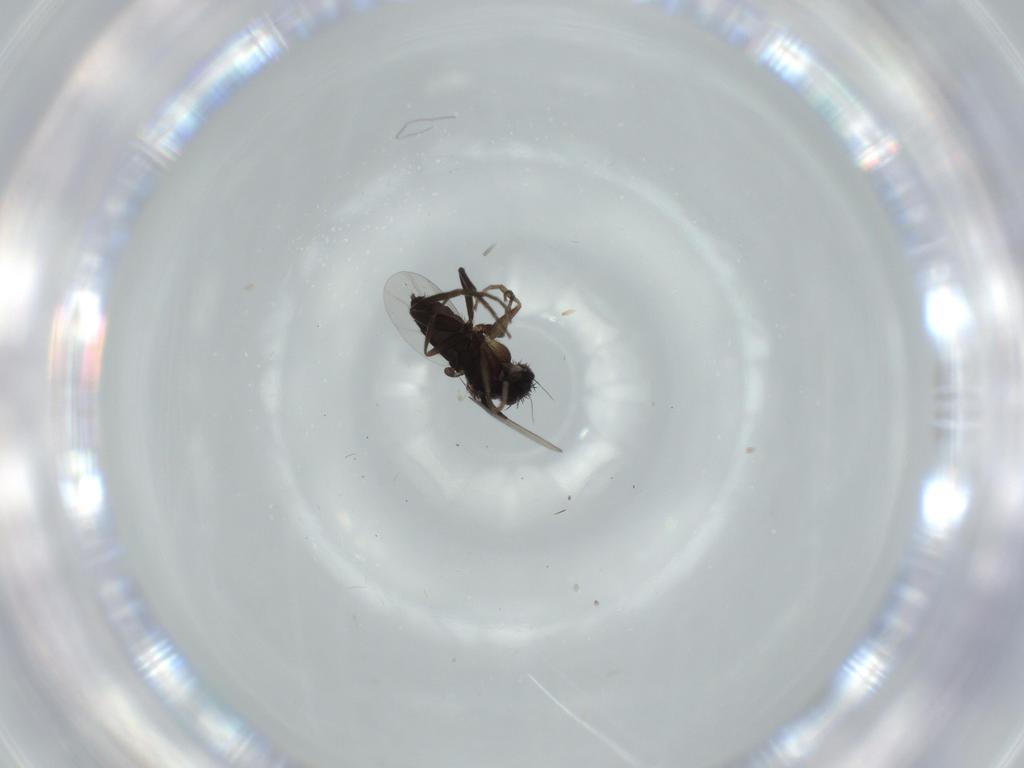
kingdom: Animalia
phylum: Arthropoda
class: Insecta
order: Diptera
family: Phoridae
